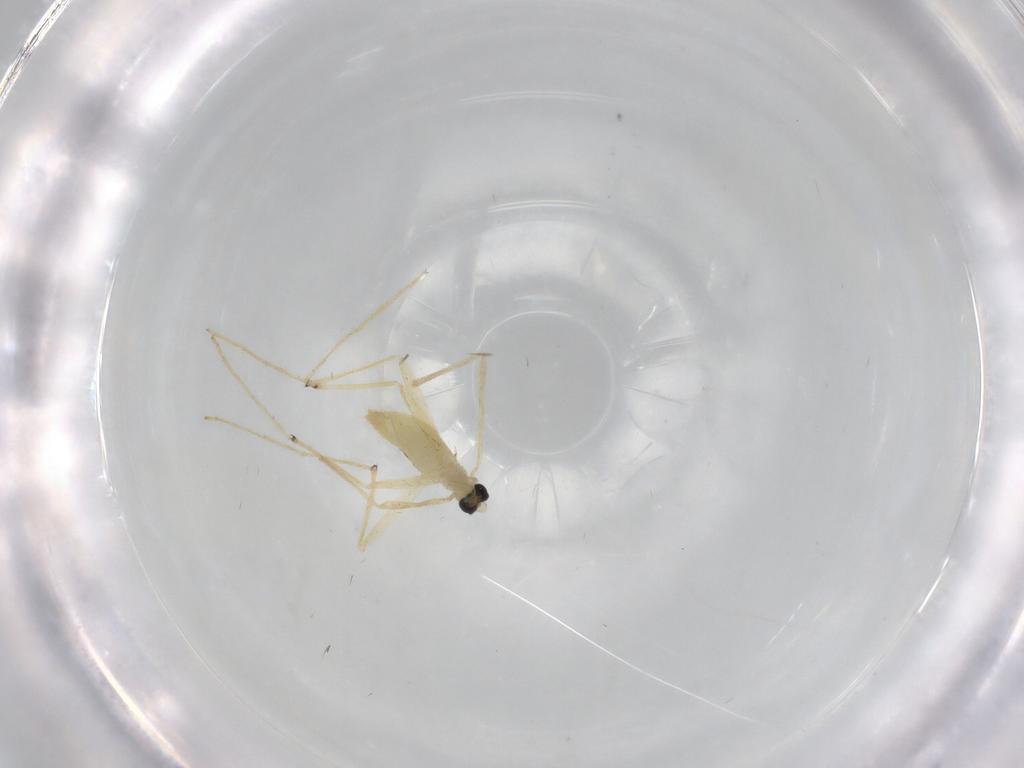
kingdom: Animalia
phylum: Arthropoda
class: Insecta
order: Diptera
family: Chironomidae
